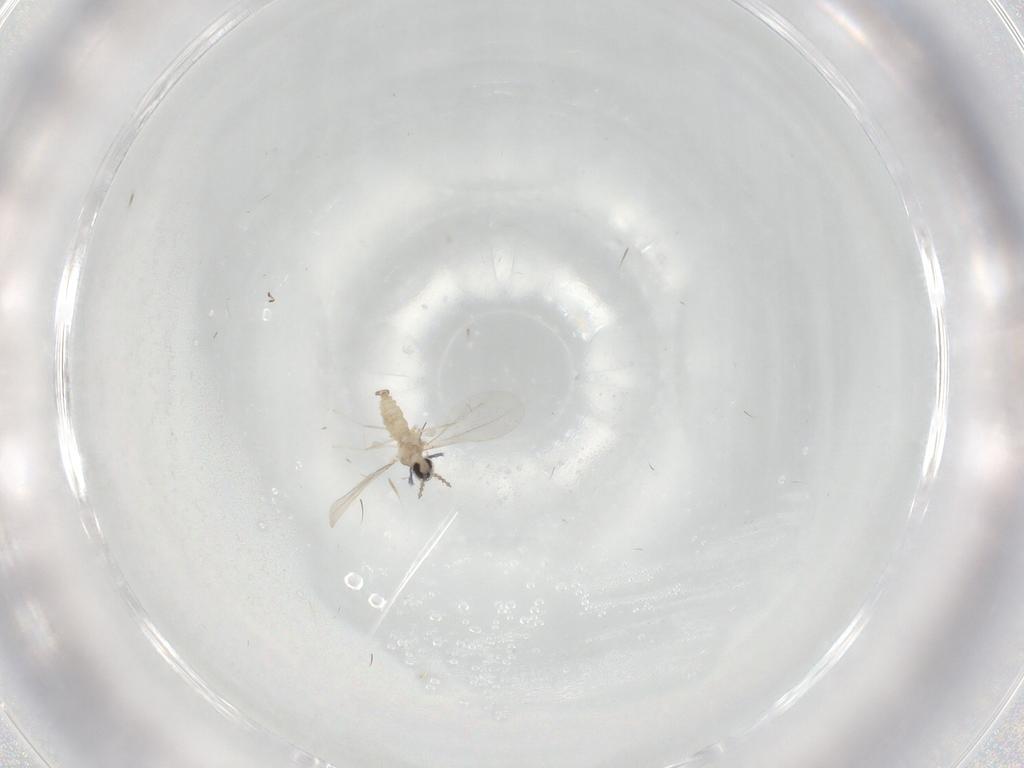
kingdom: Animalia
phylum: Arthropoda
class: Insecta
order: Diptera
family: Cecidomyiidae
